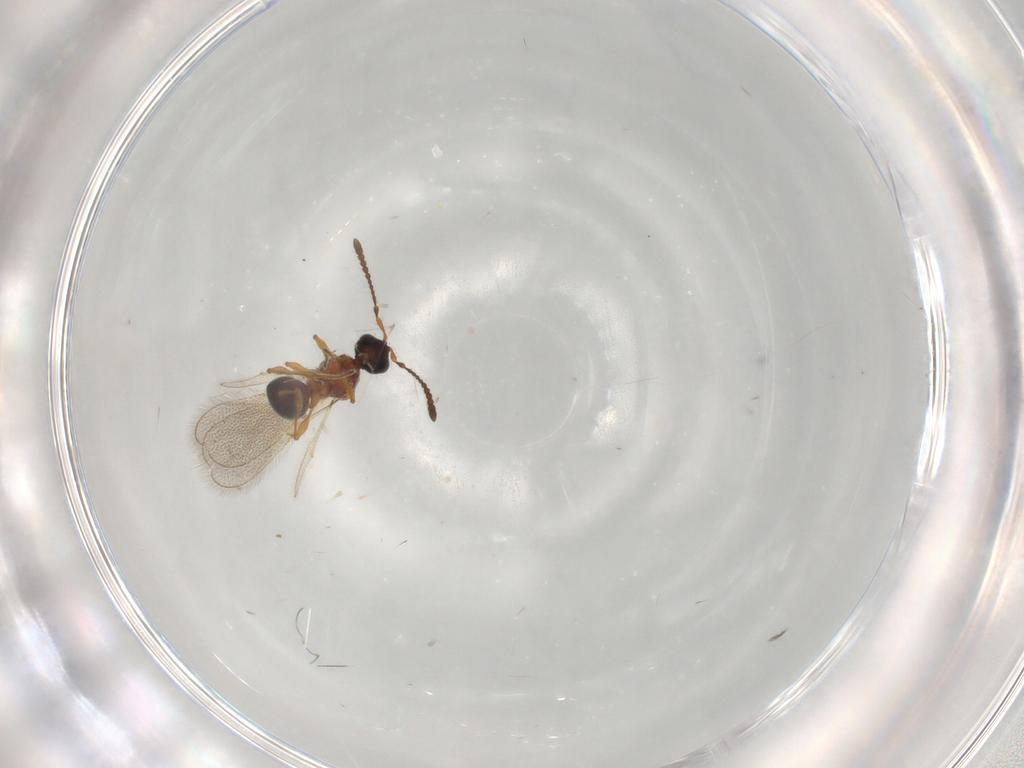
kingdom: Animalia
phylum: Arthropoda
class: Insecta
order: Hymenoptera
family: Diapriidae
